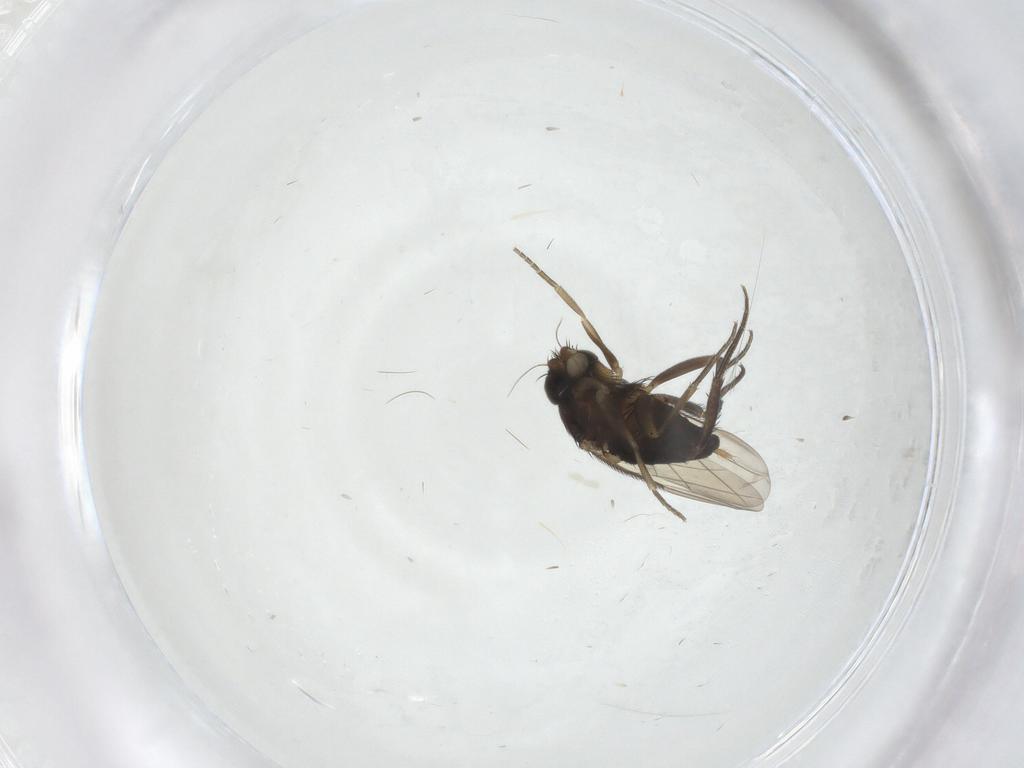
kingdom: Animalia
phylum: Arthropoda
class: Insecta
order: Diptera
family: Phoridae
